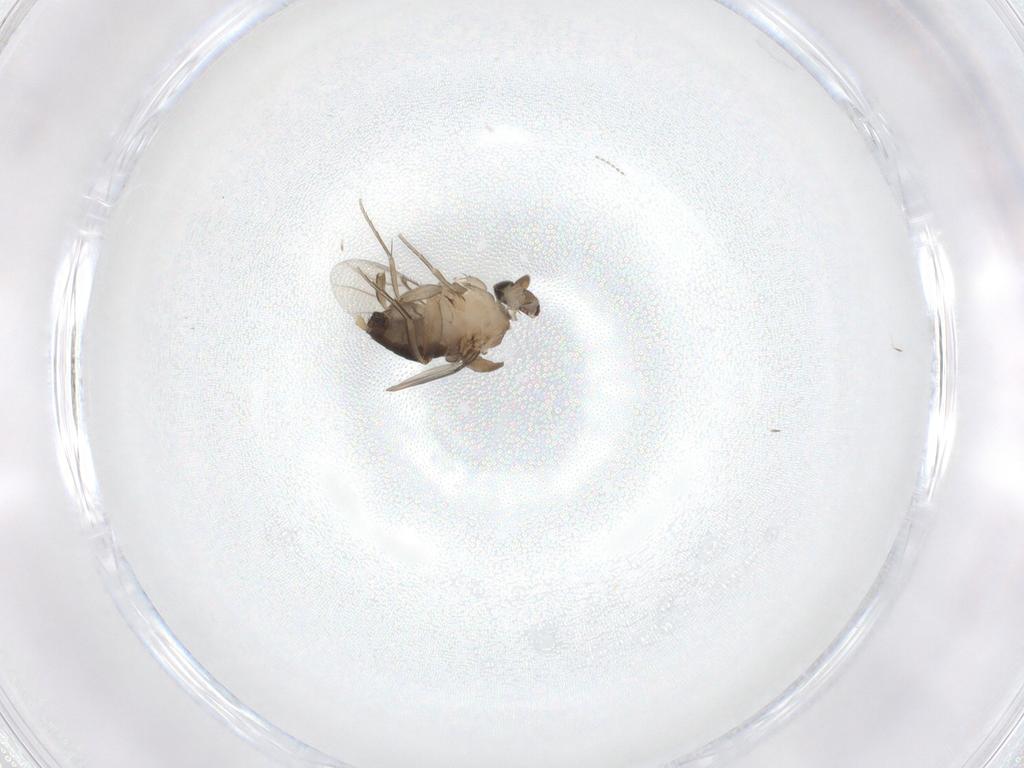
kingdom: Animalia
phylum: Arthropoda
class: Insecta
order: Diptera
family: Phoridae
